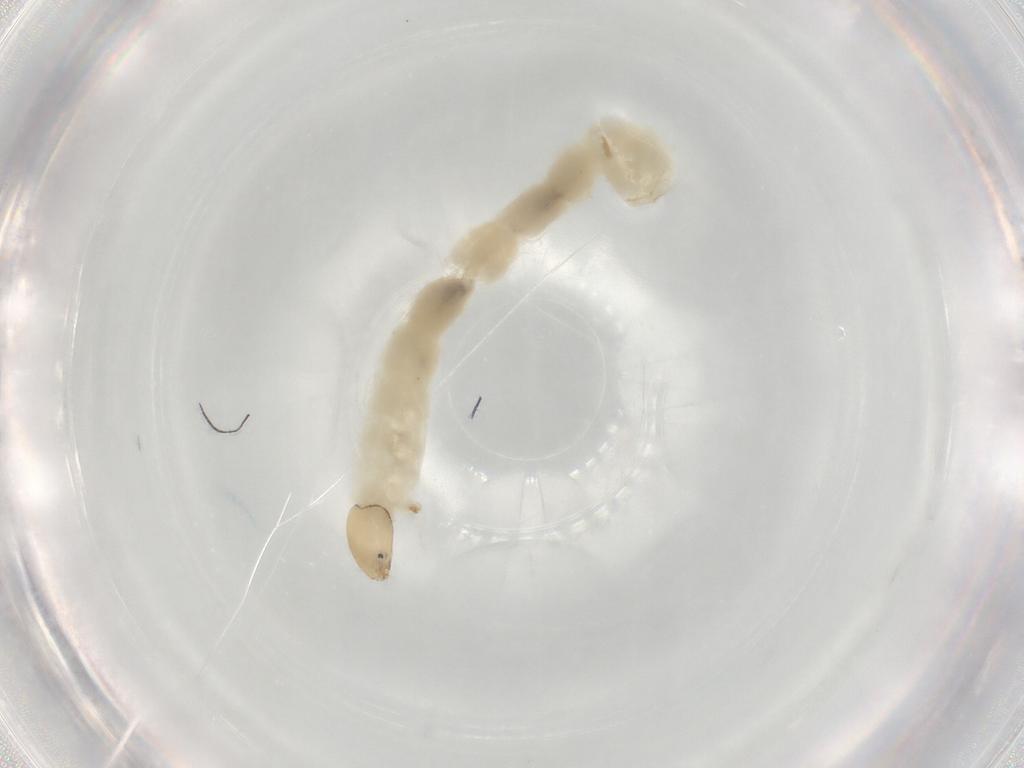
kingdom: Animalia
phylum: Arthropoda
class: Insecta
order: Diptera
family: Chironomidae
